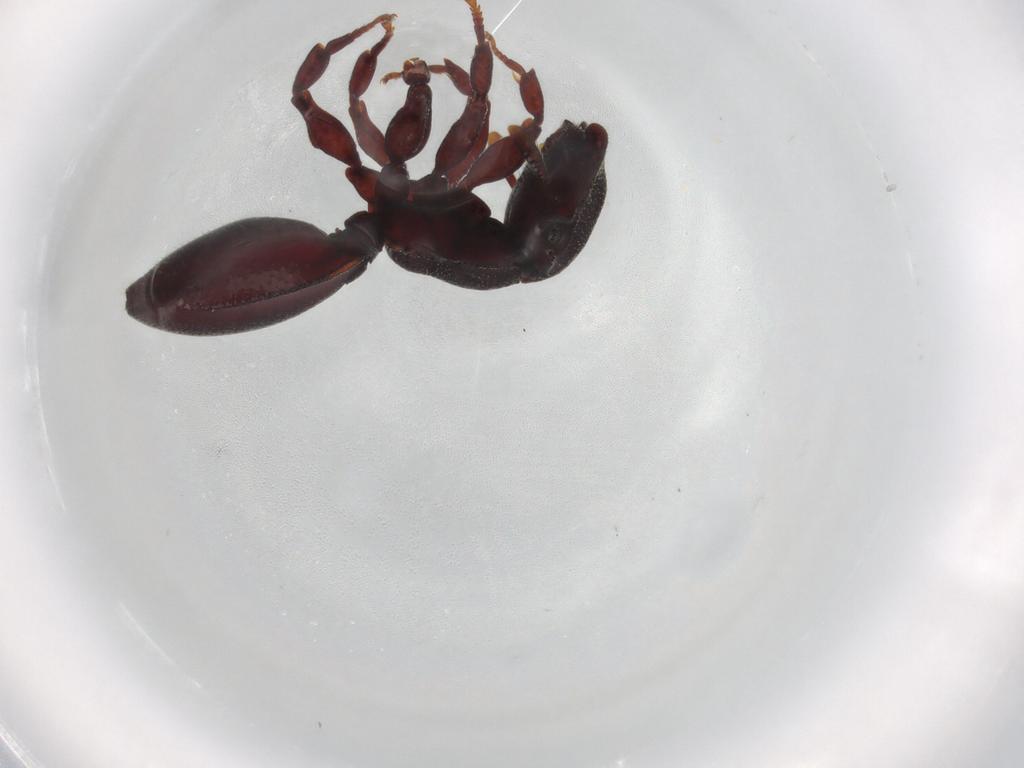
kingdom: Animalia
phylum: Arthropoda
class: Insecta
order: Hymenoptera
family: Formicidae
